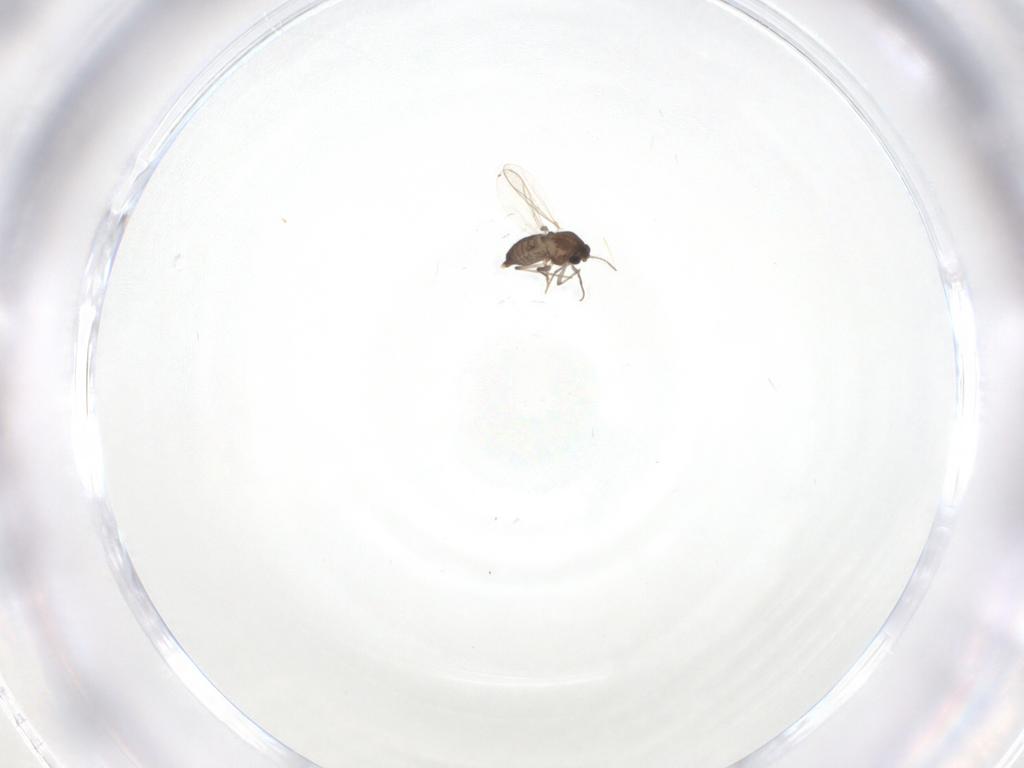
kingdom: Animalia
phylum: Arthropoda
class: Insecta
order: Diptera
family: Chironomidae
